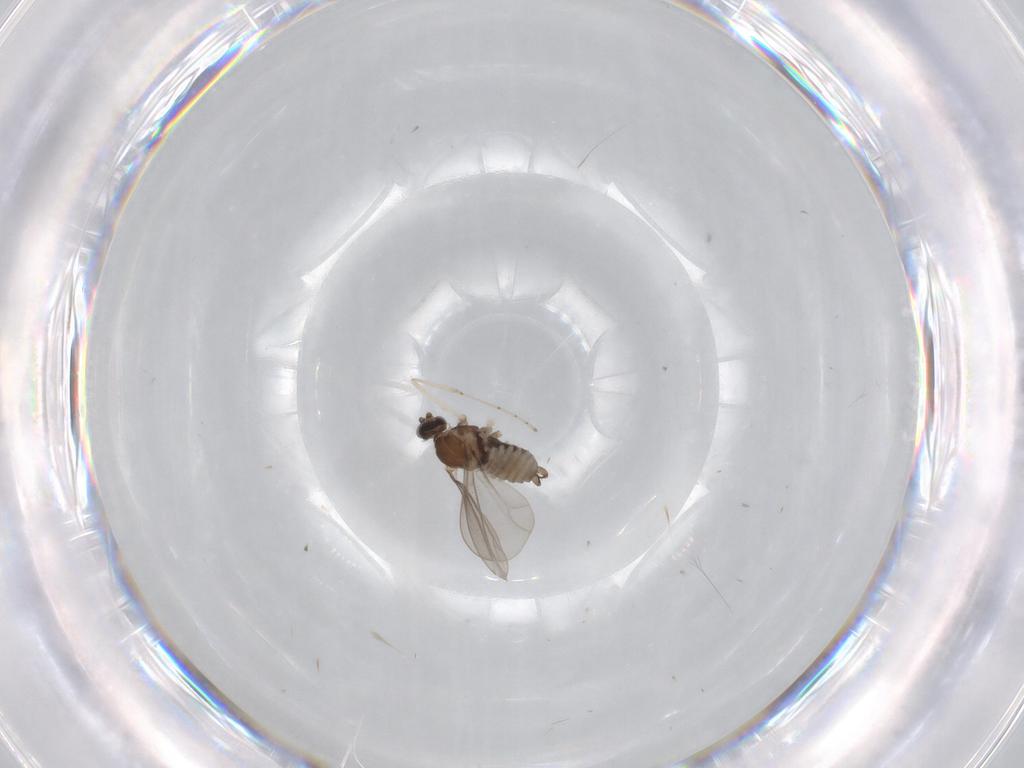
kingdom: Animalia
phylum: Arthropoda
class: Insecta
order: Diptera
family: Cecidomyiidae
